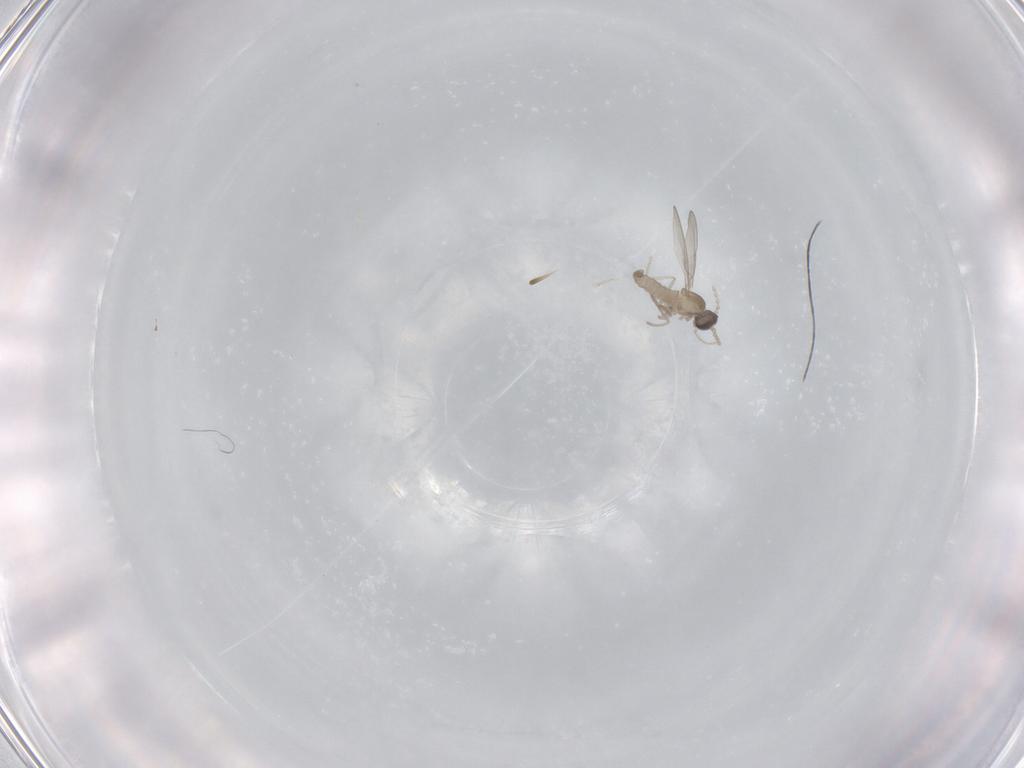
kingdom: Animalia
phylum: Arthropoda
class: Insecta
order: Diptera
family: Cecidomyiidae
